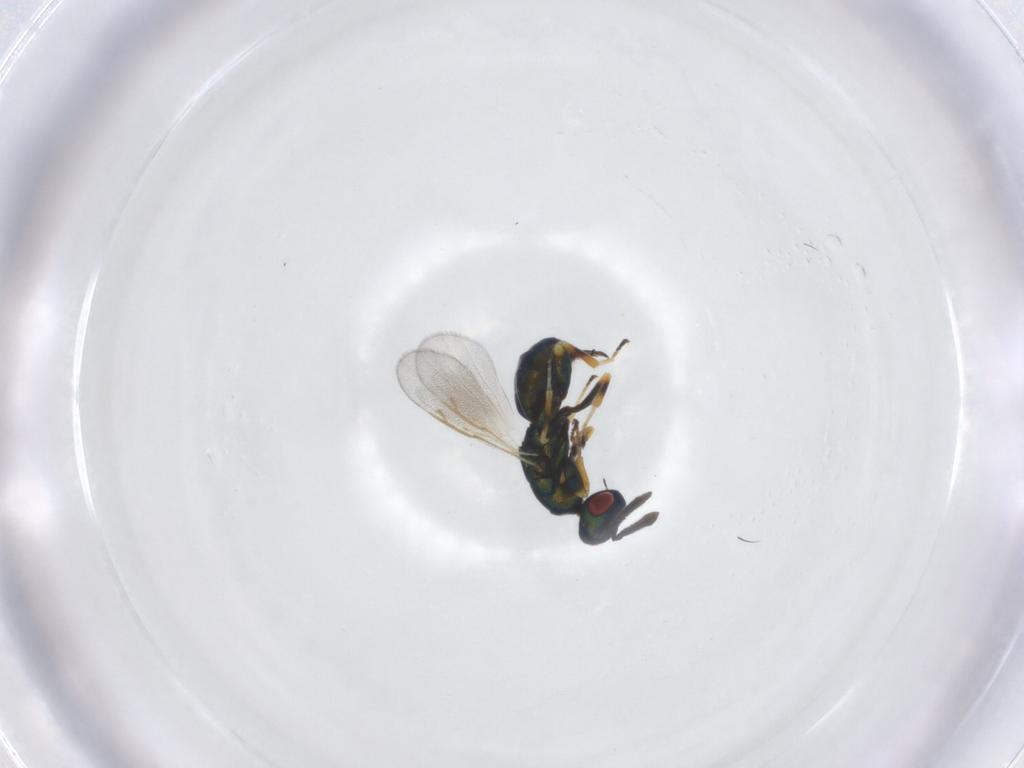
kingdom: Animalia
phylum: Arthropoda
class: Insecta
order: Hymenoptera
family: Torymidae
